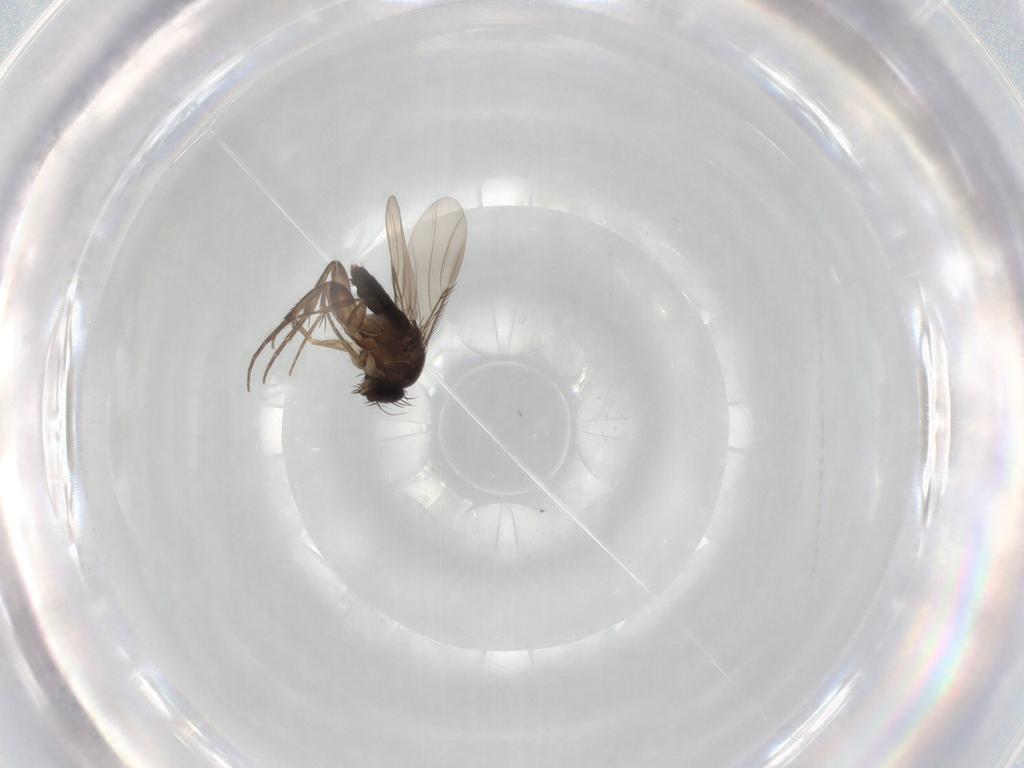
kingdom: Animalia
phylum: Arthropoda
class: Insecta
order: Diptera
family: Phoridae
